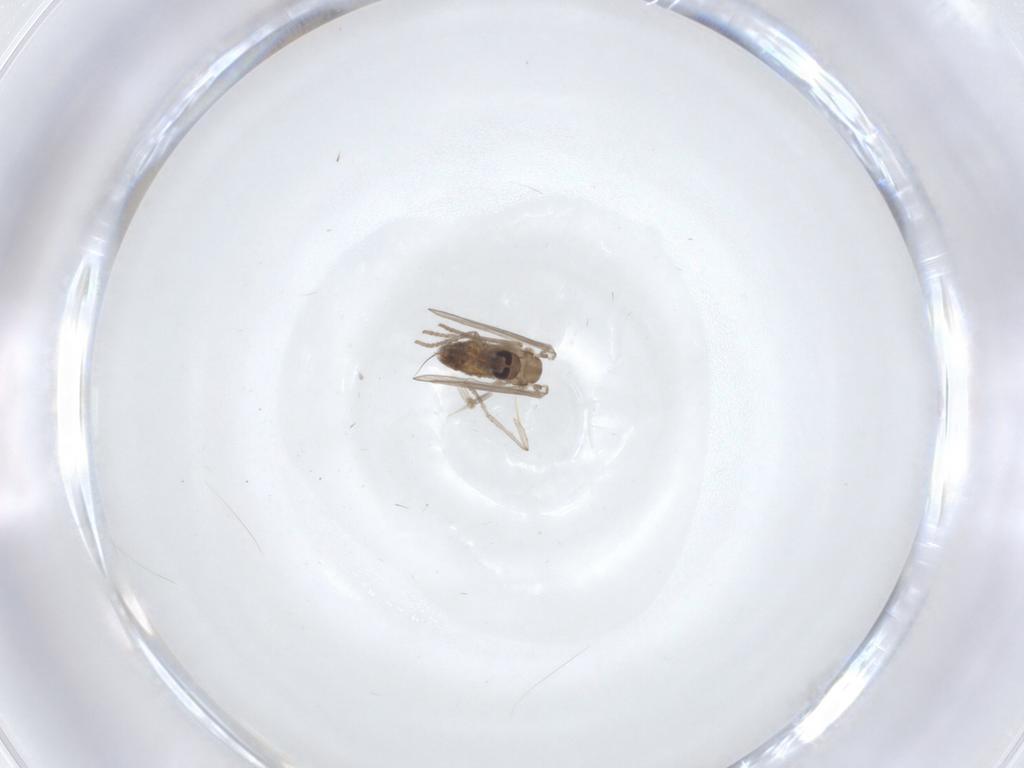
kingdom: Animalia
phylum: Arthropoda
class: Insecta
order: Diptera
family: Psychodidae
